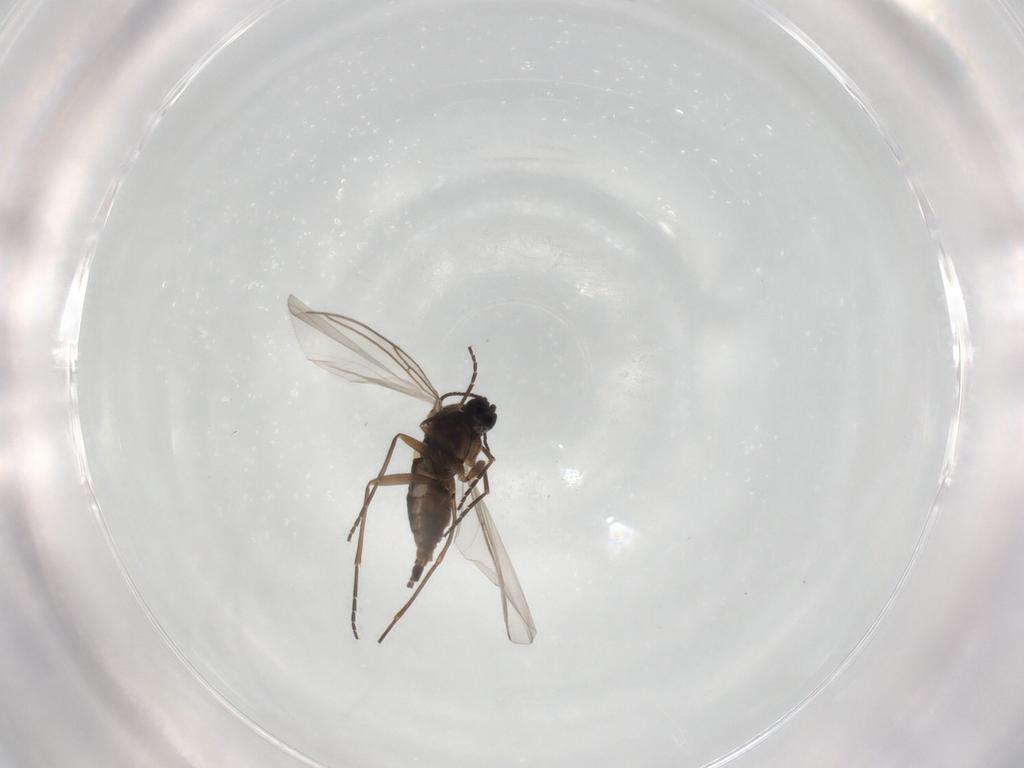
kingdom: Animalia
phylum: Arthropoda
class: Insecta
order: Diptera
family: Sciaridae
